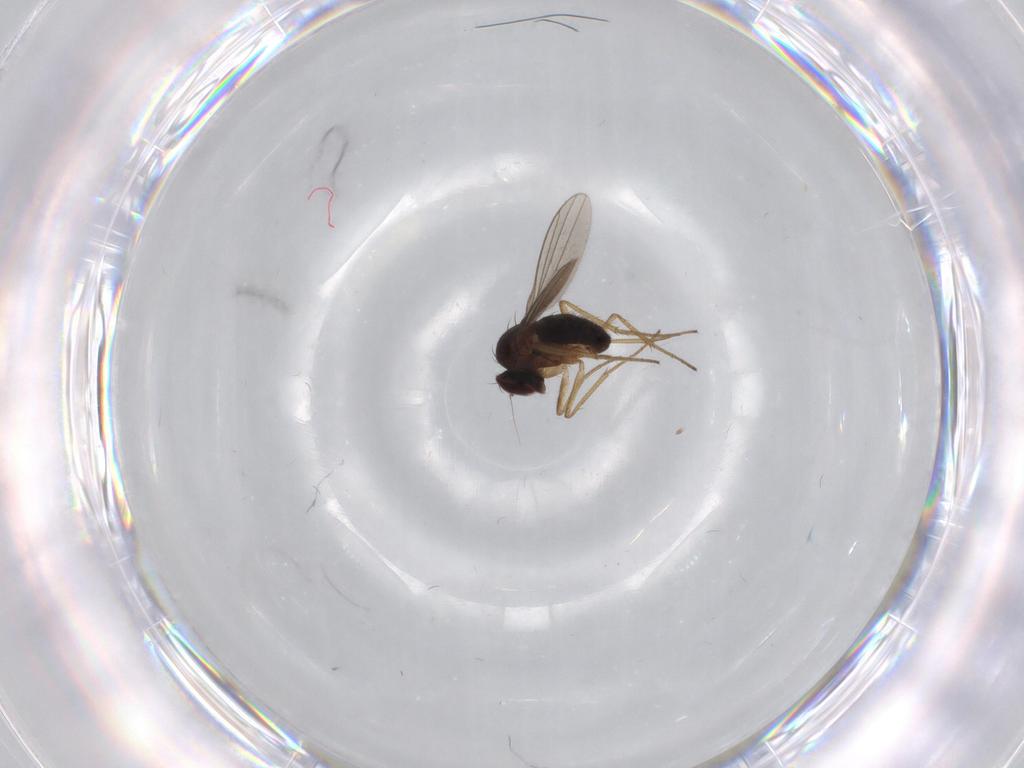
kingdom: Animalia
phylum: Arthropoda
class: Insecta
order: Diptera
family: Dolichopodidae
